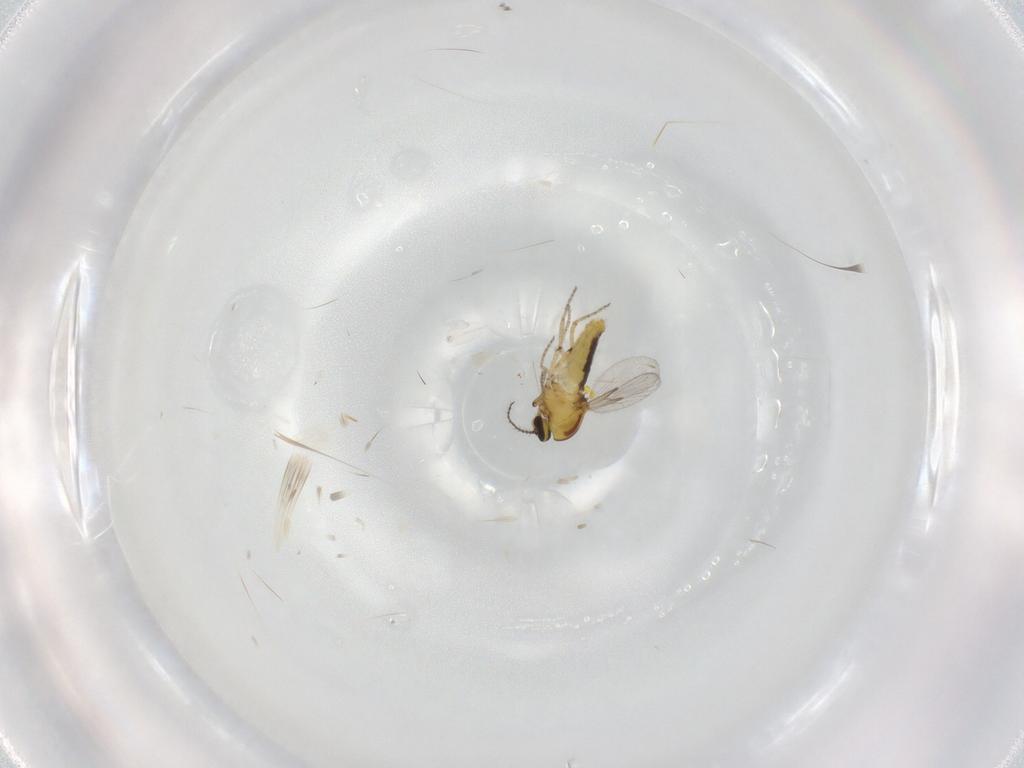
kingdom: Animalia
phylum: Arthropoda
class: Insecta
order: Diptera
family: Ceratopogonidae
